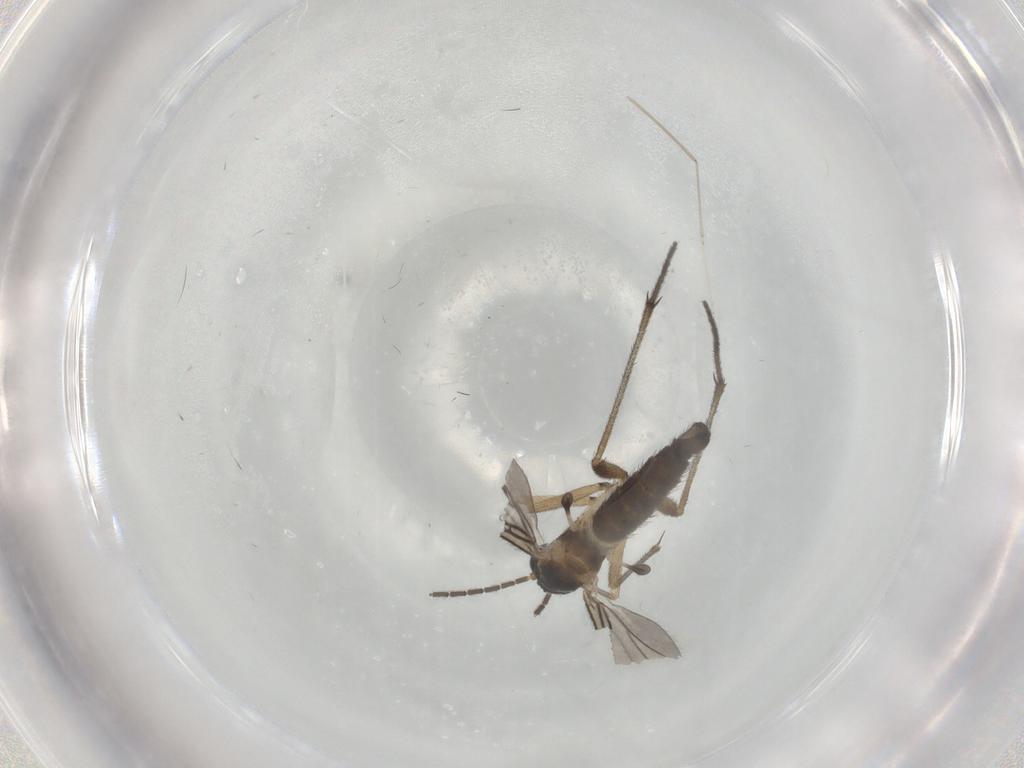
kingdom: Animalia
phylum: Arthropoda
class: Insecta
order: Diptera
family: Sciaridae
